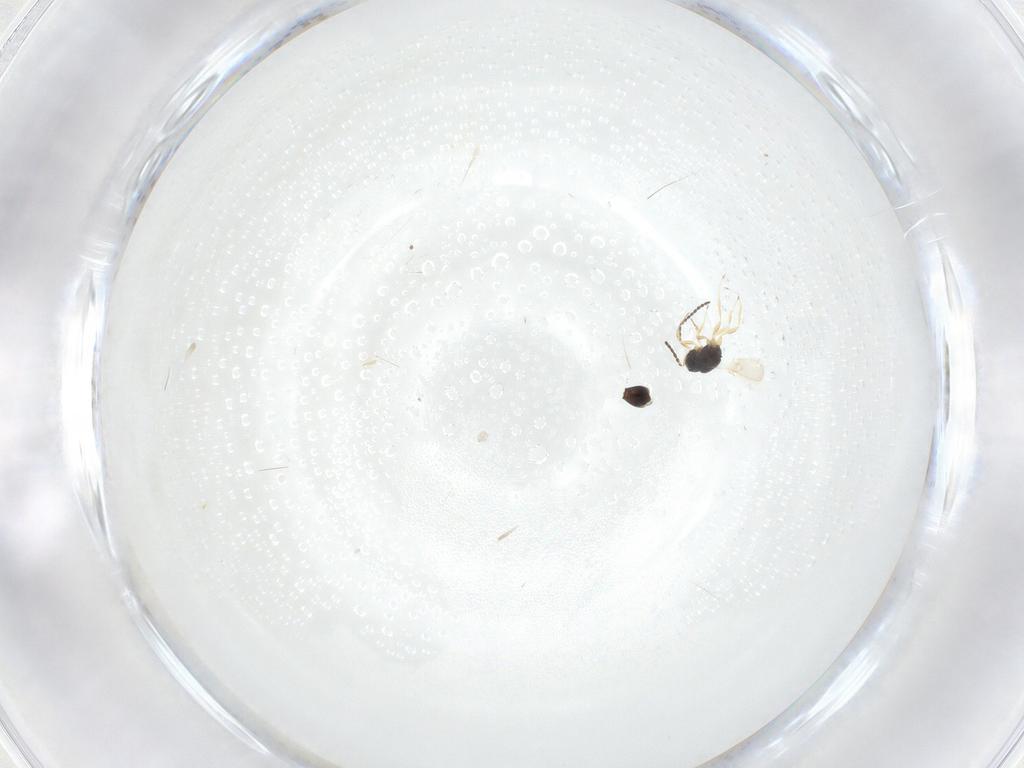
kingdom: Animalia
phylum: Arthropoda
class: Insecta
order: Hymenoptera
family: Scelionidae
